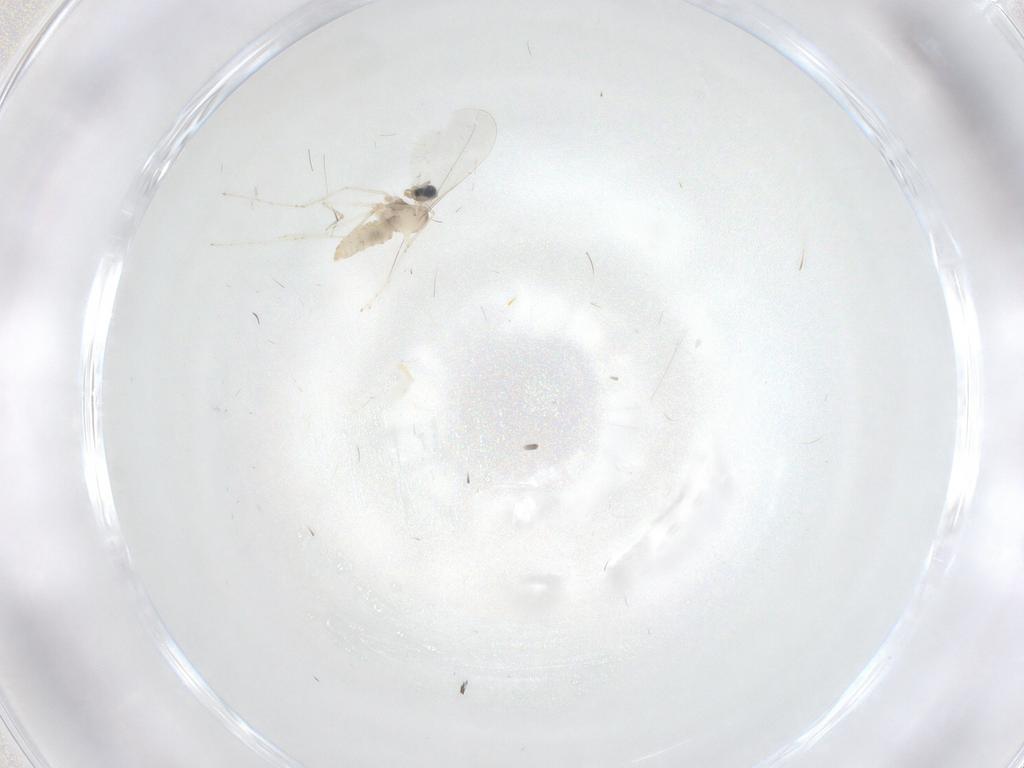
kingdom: Animalia
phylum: Arthropoda
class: Insecta
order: Diptera
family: Cecidomyiidae
